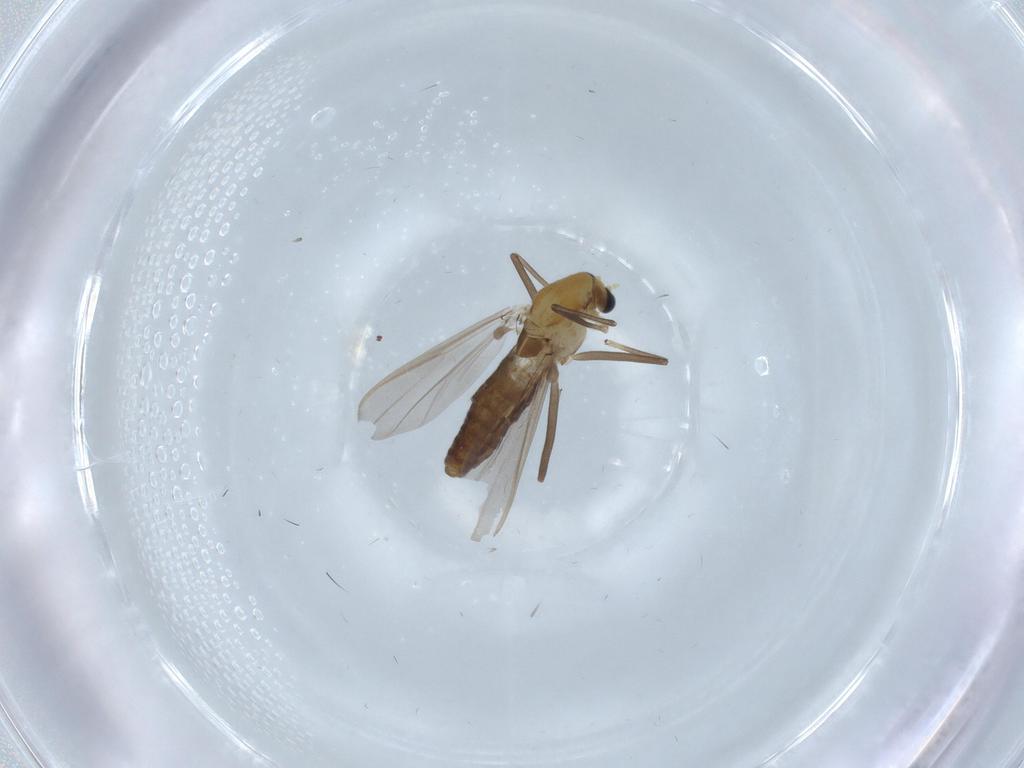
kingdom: Animalia
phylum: Arthropoda
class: Insecta
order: Diptera
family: Chironomidae
